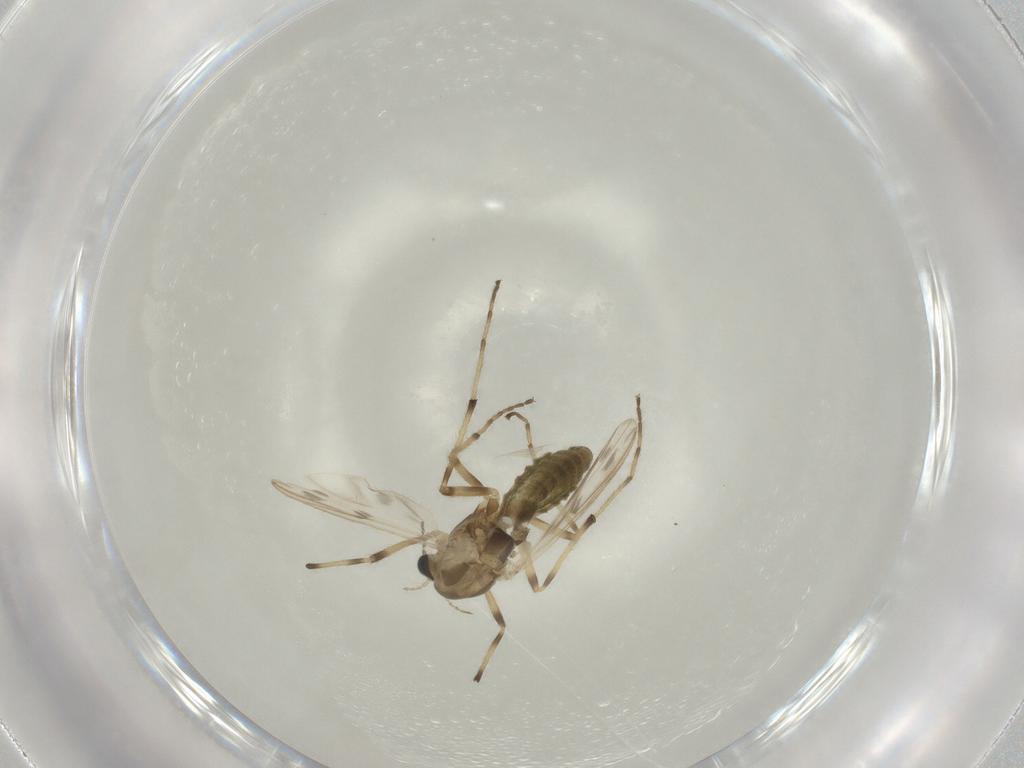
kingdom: Animalia
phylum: Arthropoda
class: Insecta
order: Diptera
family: Chironomidae
